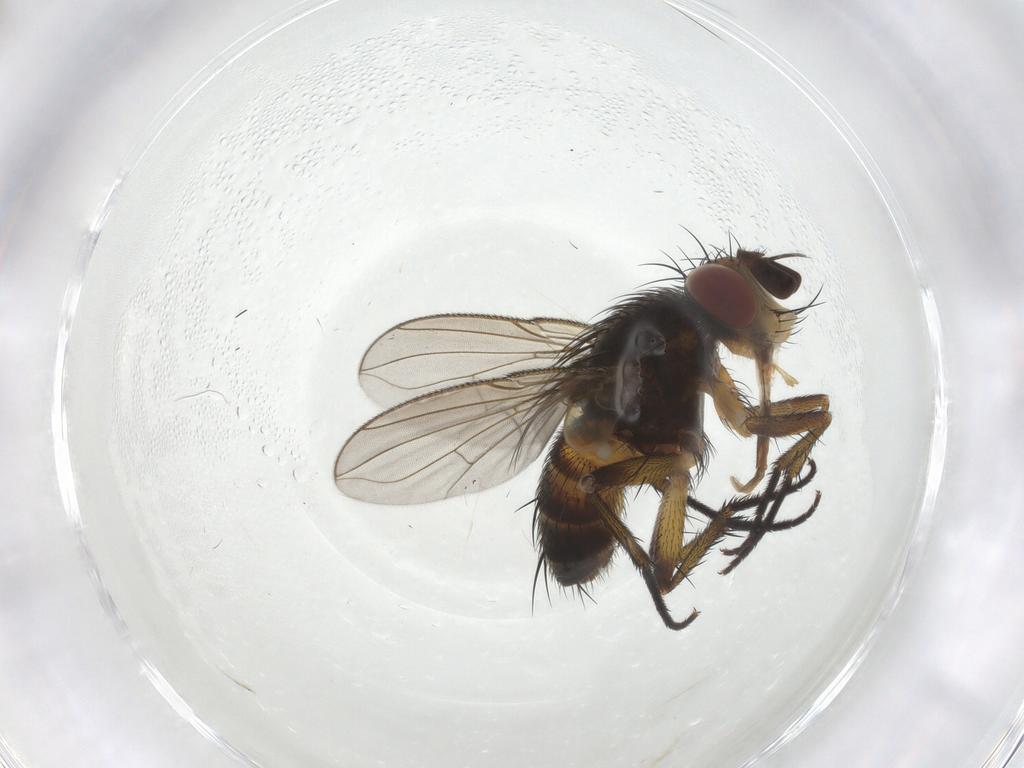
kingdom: Animalia
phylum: Arthropoda
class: Insecta
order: Diptera
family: Tachinidae
